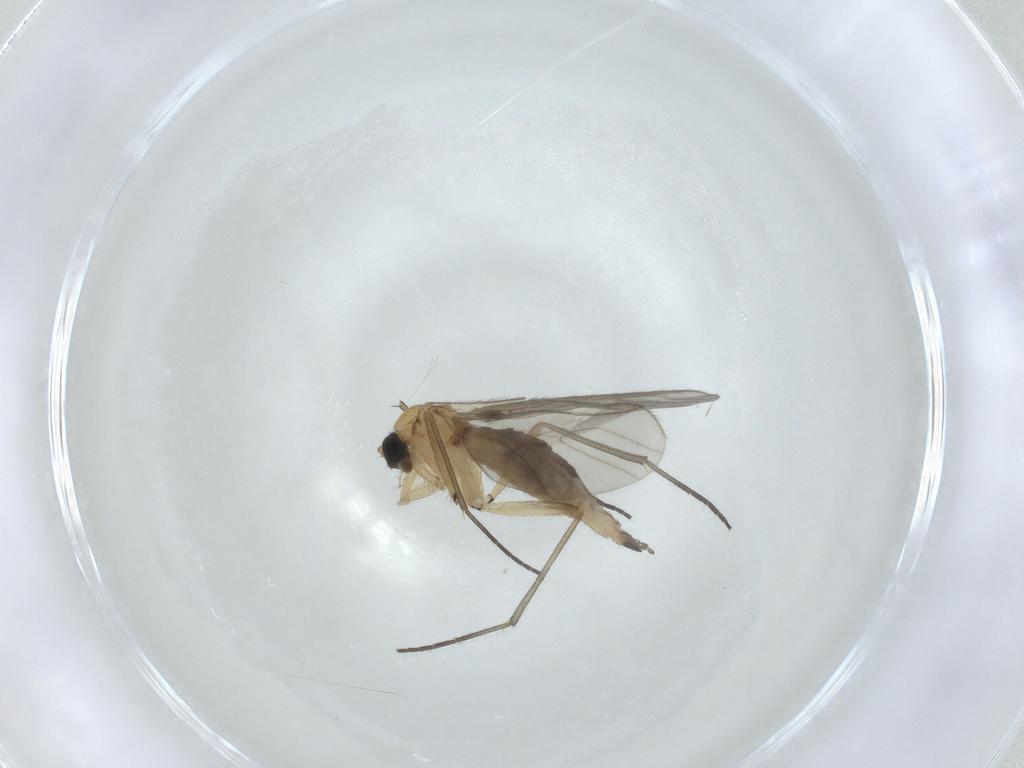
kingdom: Animalia
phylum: Arthropoda
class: Insecta
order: Diptera
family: Sciaridae
